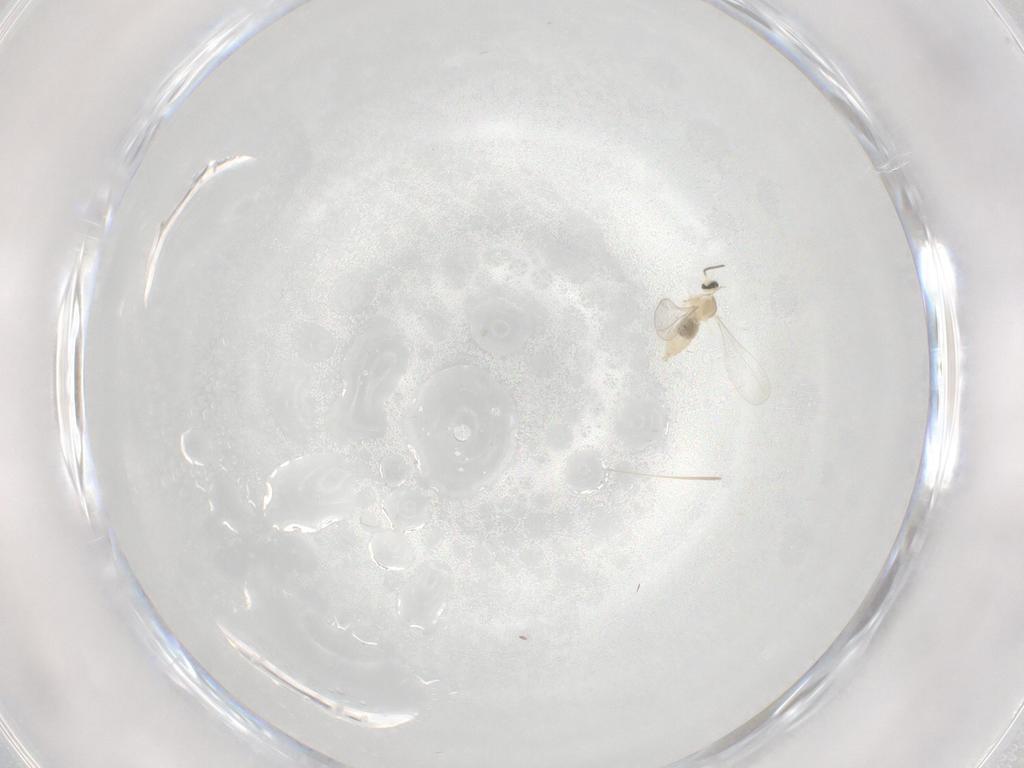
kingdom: Animalia
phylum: Arthropoda
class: Insecta
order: Diptera
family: Cecidomyiidae
